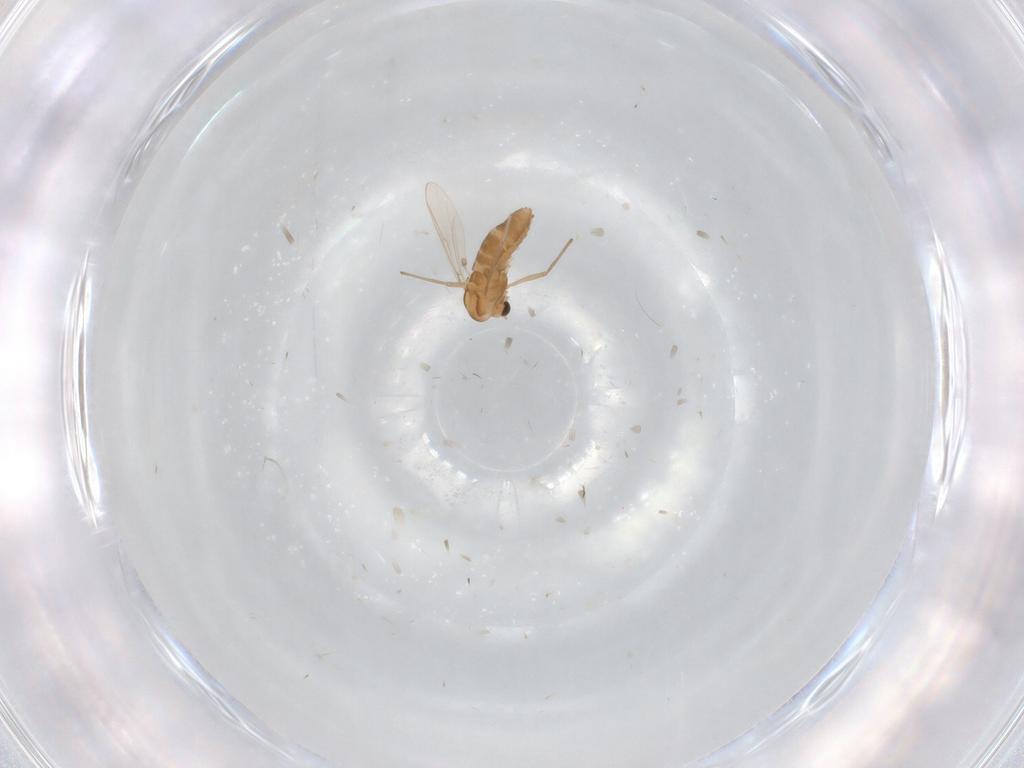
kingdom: Animalia
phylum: Arthropoda
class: Insecta
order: Diptera
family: Chironomidae
